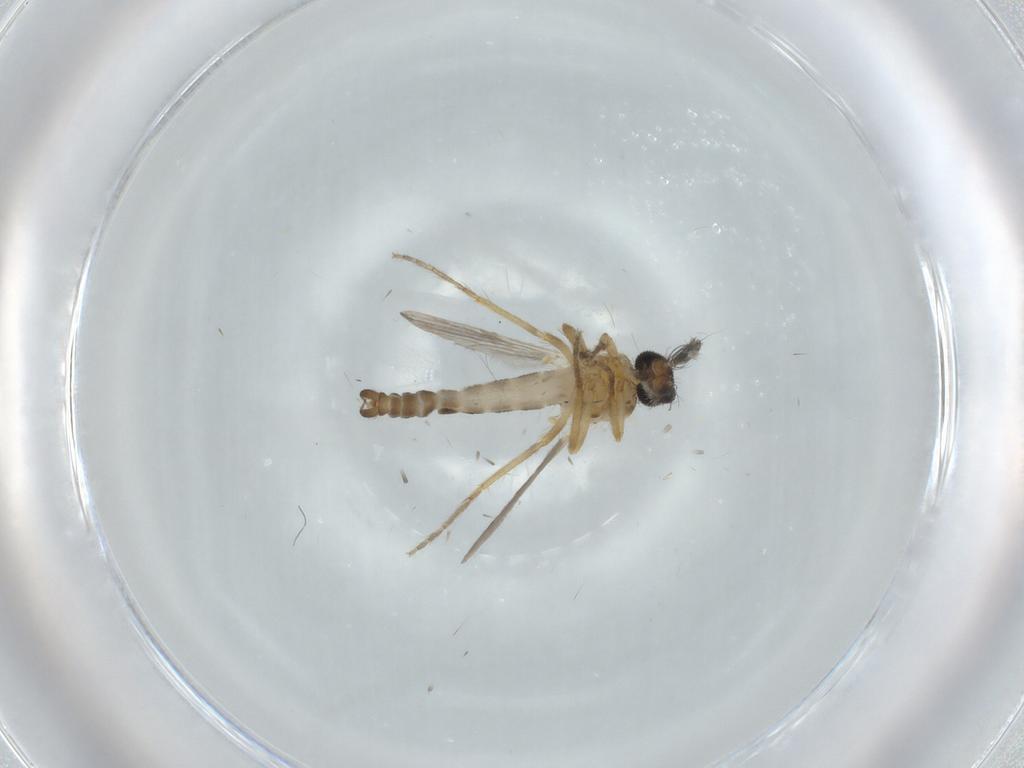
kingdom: Animalia
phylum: Arthropoda
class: Insecta
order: Diptera
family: Ceratopogonidae
